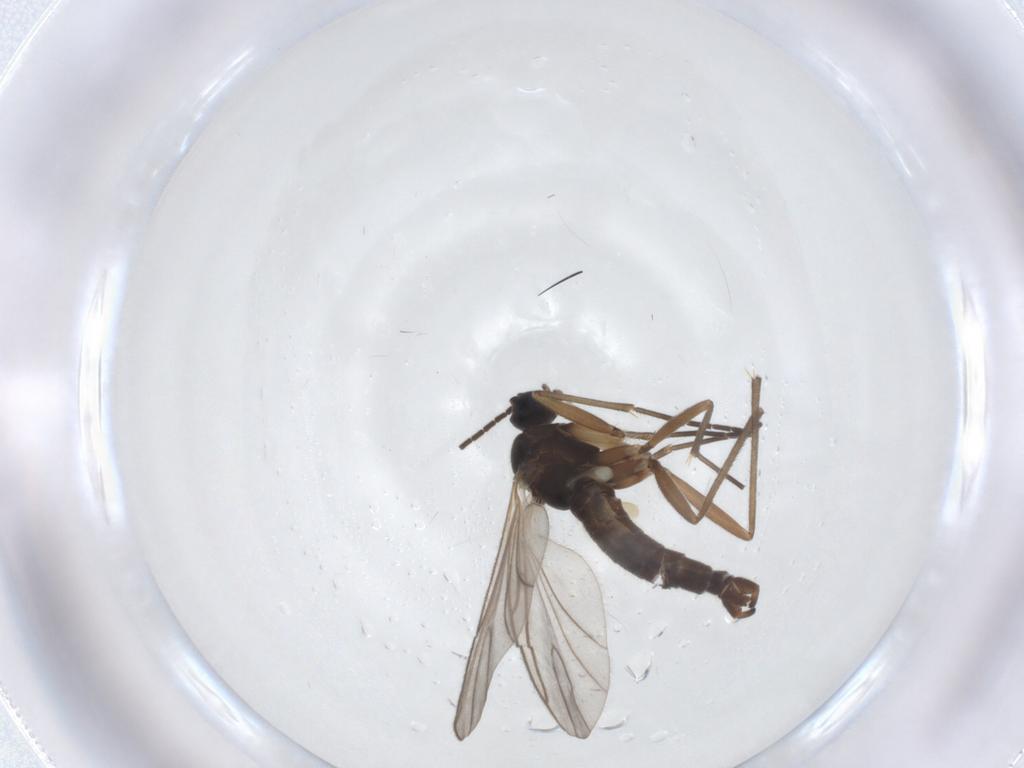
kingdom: Animalia
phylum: Arthropoda
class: Insecta
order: Diptera
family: Sciaridae
